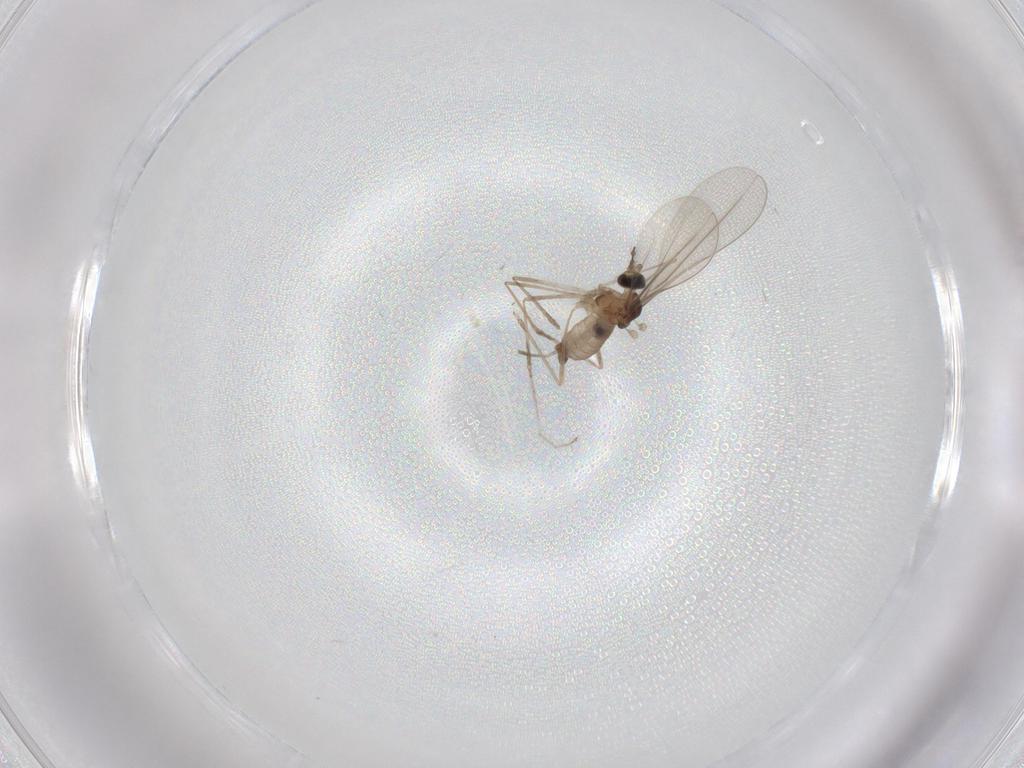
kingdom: Animalia
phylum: Arthropoda
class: Insecta
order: Diptera
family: Cecidomyiidae
